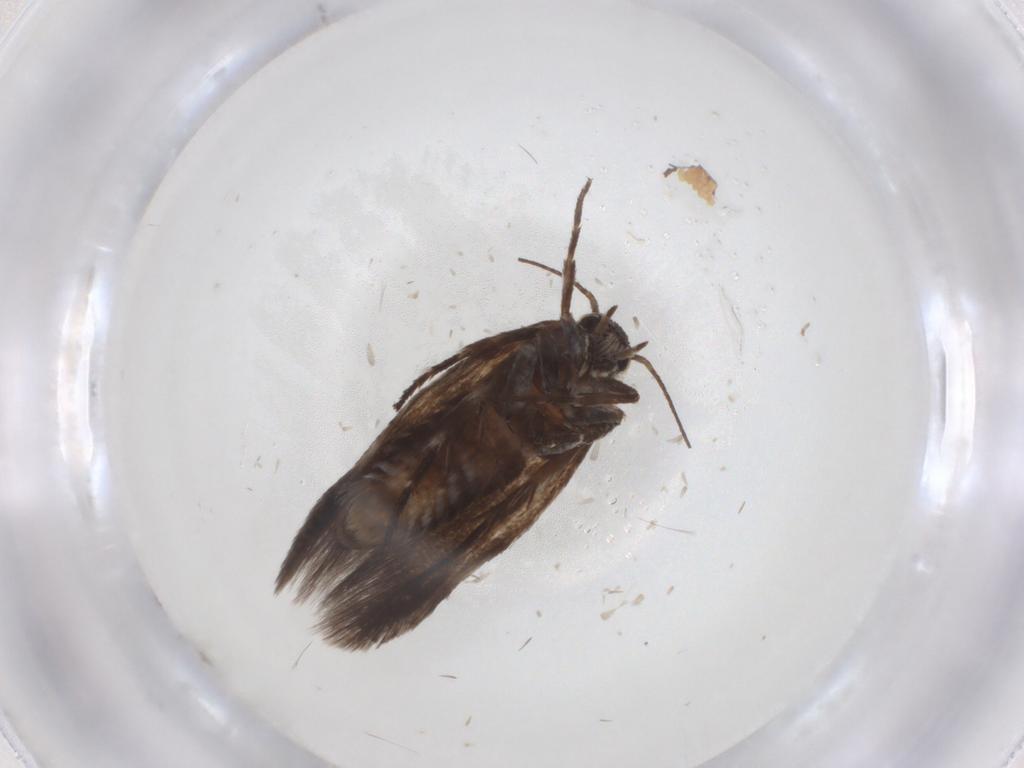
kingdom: Animalia
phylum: Arthropoda
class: Insecta
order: Lepidoptera
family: Scythrididae
